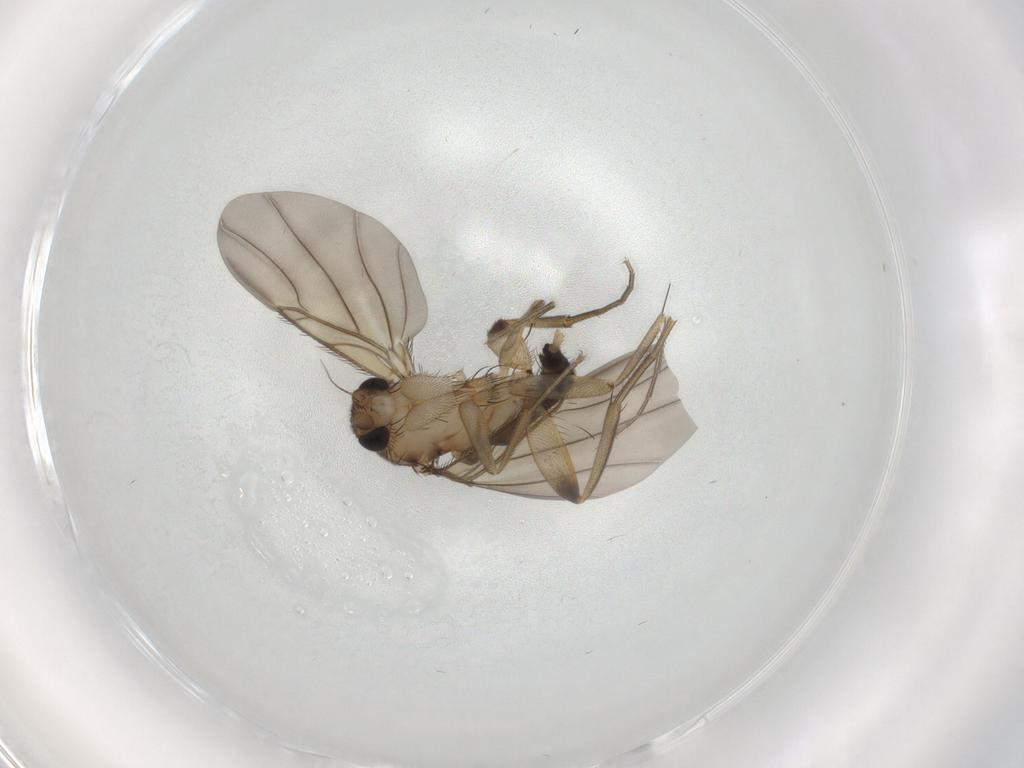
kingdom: Animalia
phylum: Arthropoda
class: Insecta
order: Diptera
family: Phoridae
